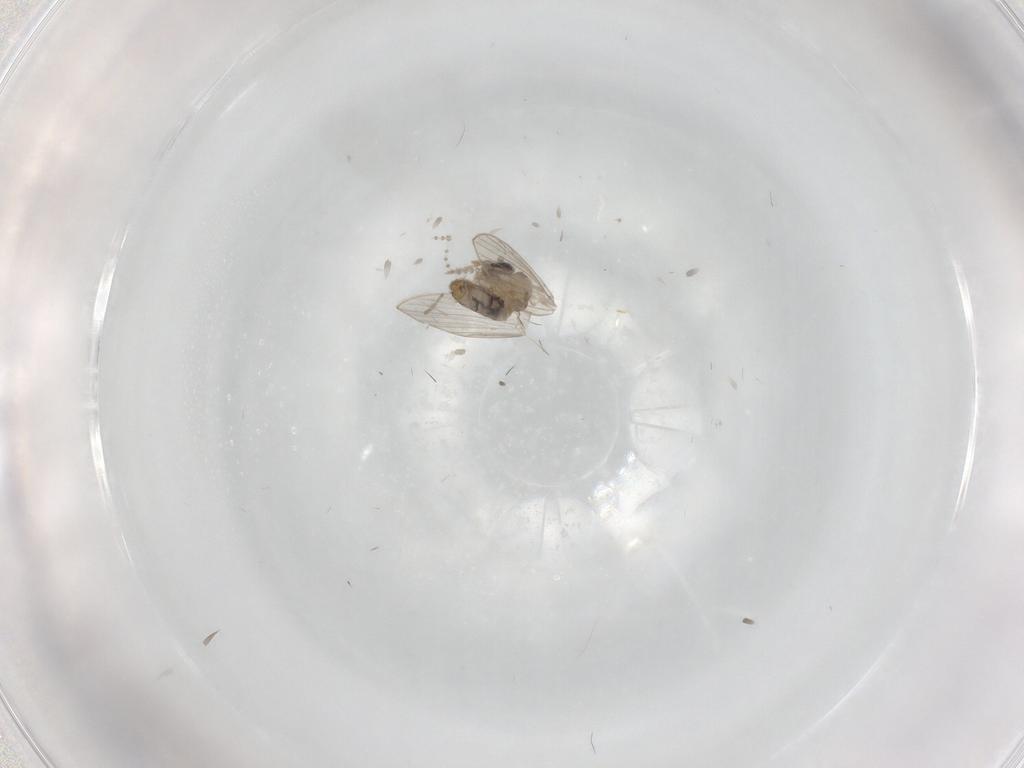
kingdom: Animalia
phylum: Arthropoda
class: Insecta
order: Diptera
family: Psychodidae
